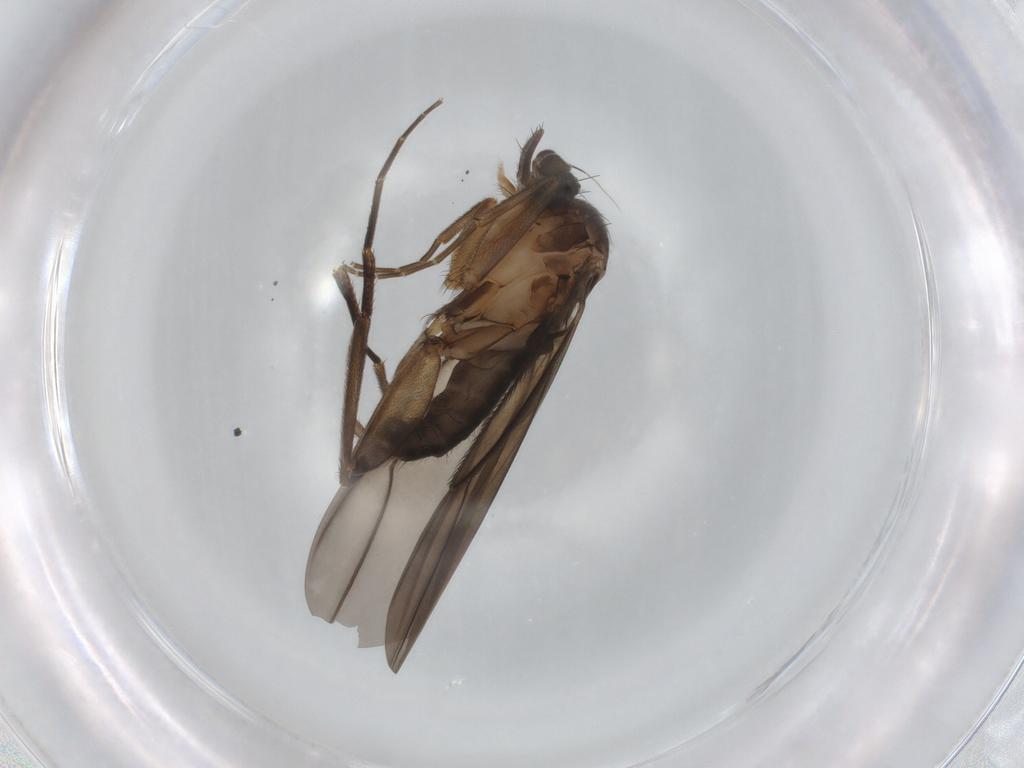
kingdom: Animalia
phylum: Arthropoda
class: Insecta
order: Diptera
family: Phoridae
